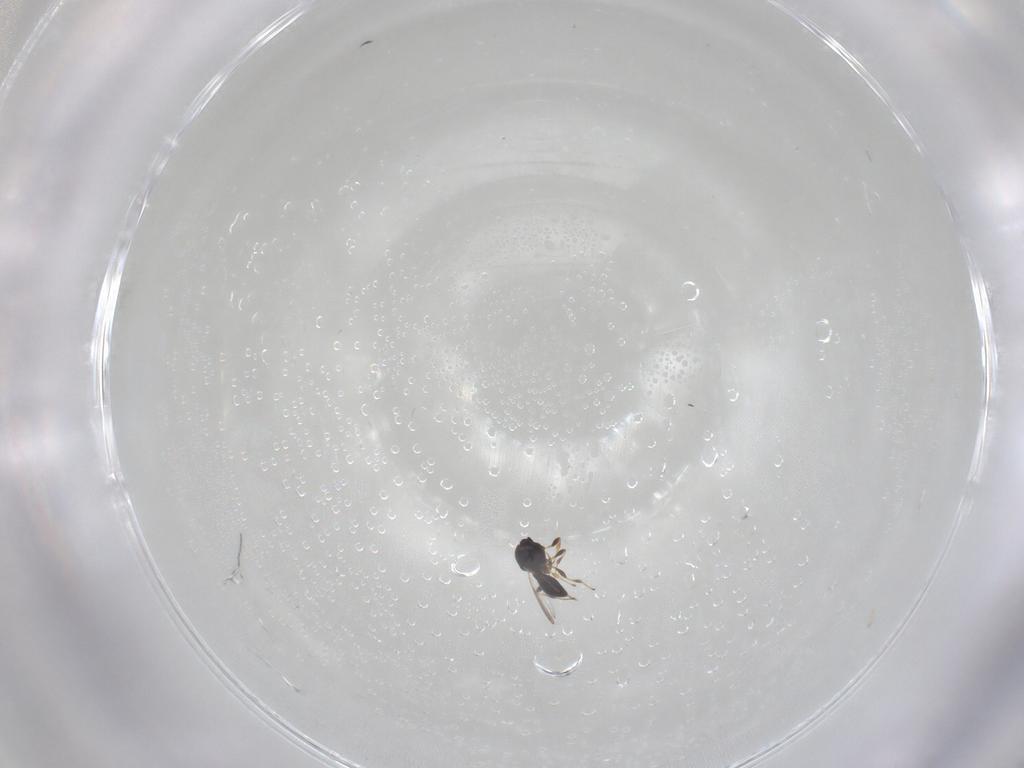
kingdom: Animalia
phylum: Arthropoda
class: Insecta
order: Hymenoptera
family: Platygastridae
